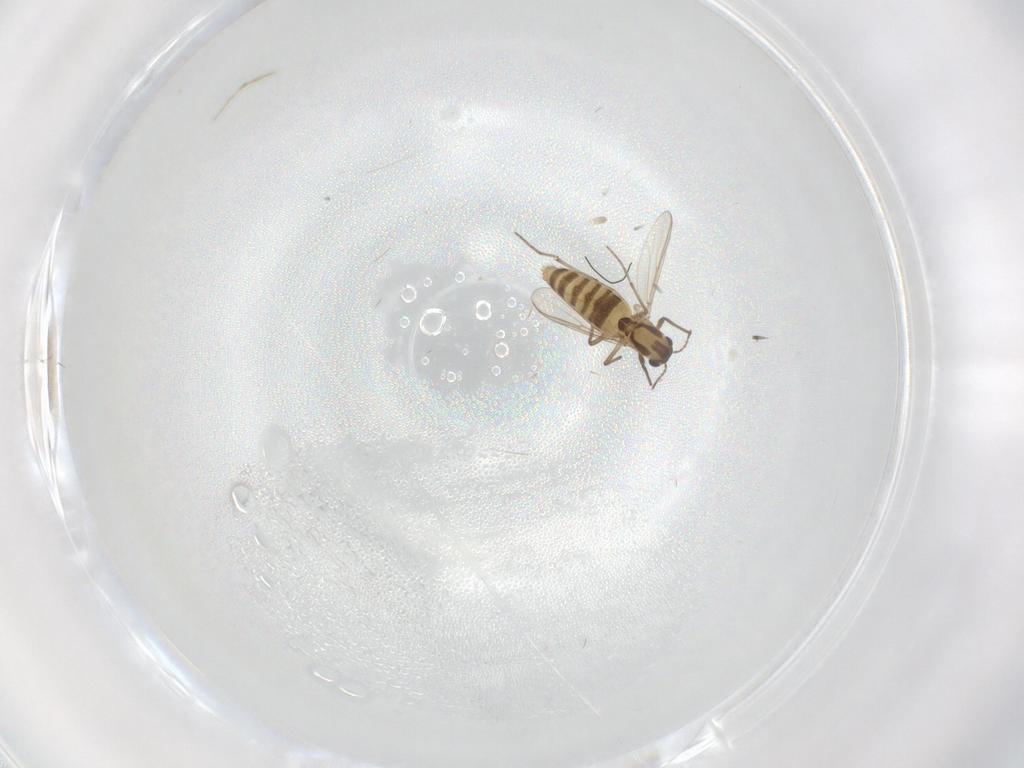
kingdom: Animalia
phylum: Arthropoda
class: Insecta
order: Diptera
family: Chironomidae
